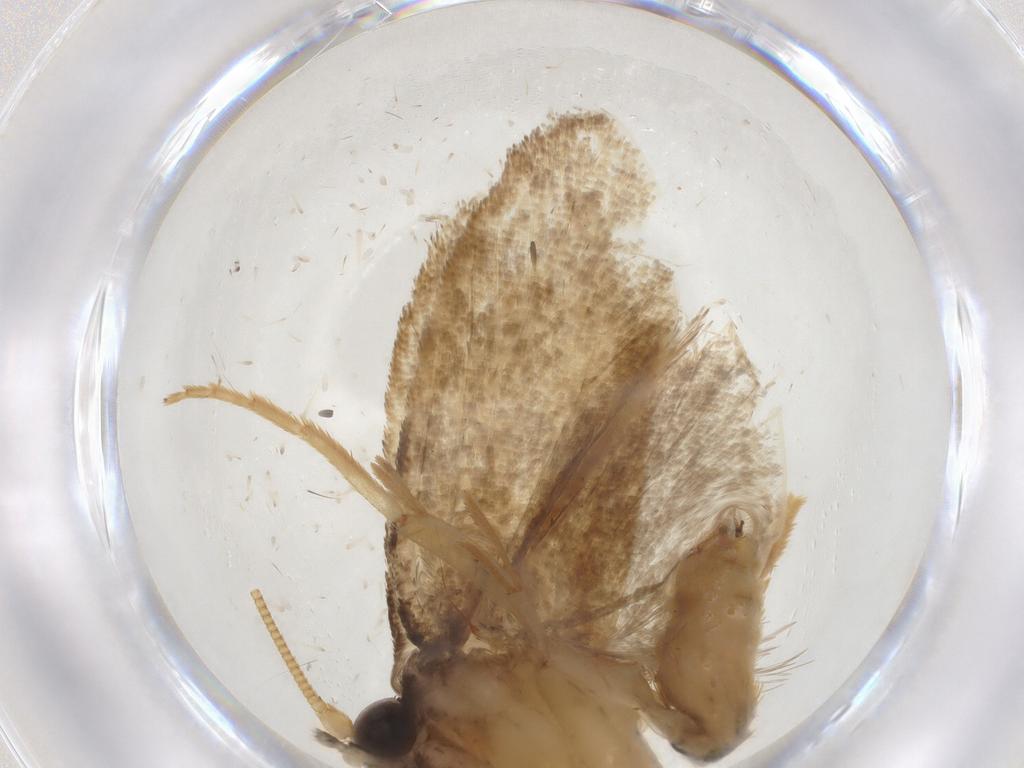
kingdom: Animalia
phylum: Arthropoda
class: Insecta
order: Lepidoptera
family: Tineidae
